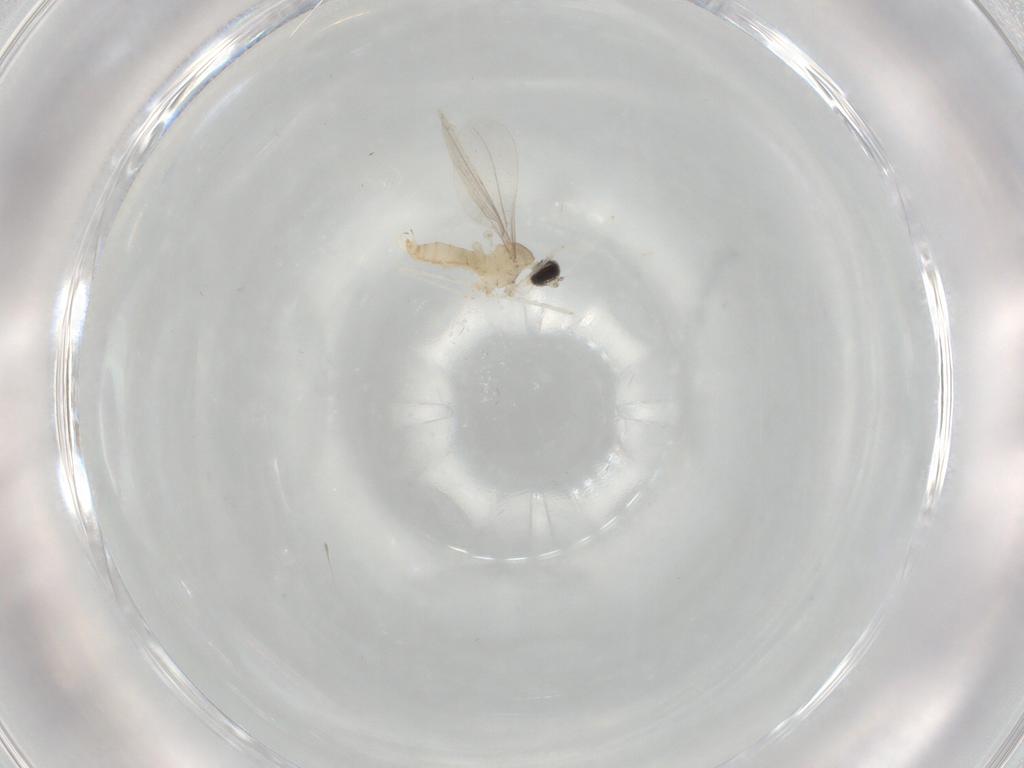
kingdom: Animalia
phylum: Arthropoda
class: Insecta
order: Diptera
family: Cecidomyiidae
